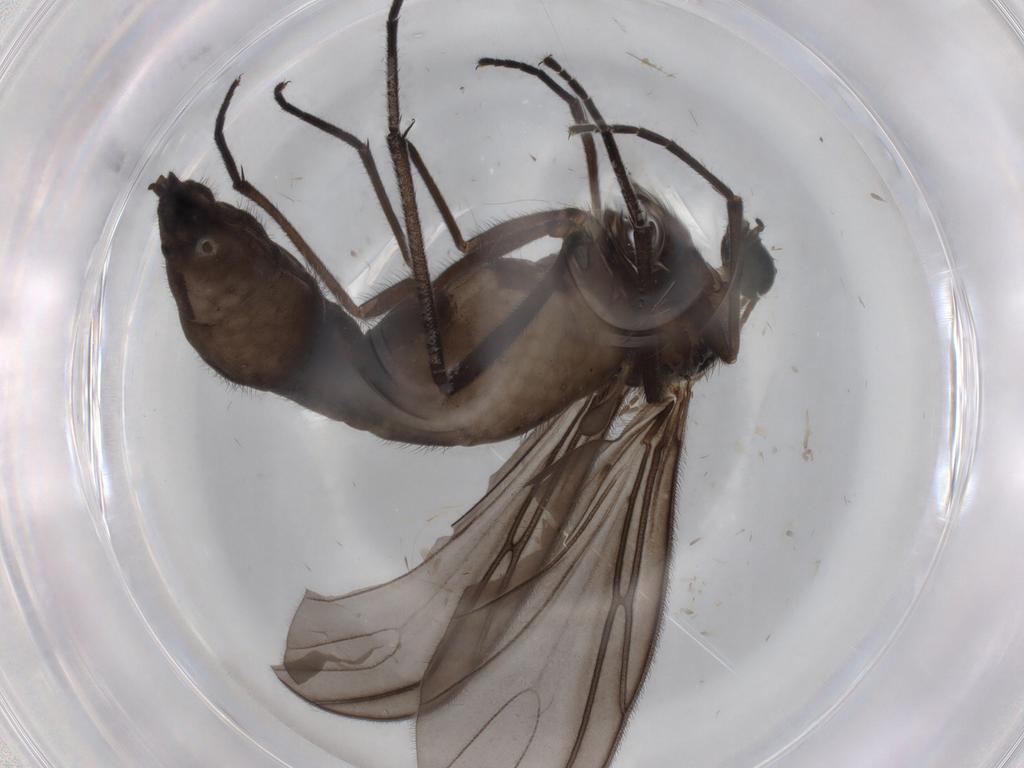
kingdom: Animalia
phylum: Arthropoda
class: Insecta
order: Diptera
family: Sciaridae
